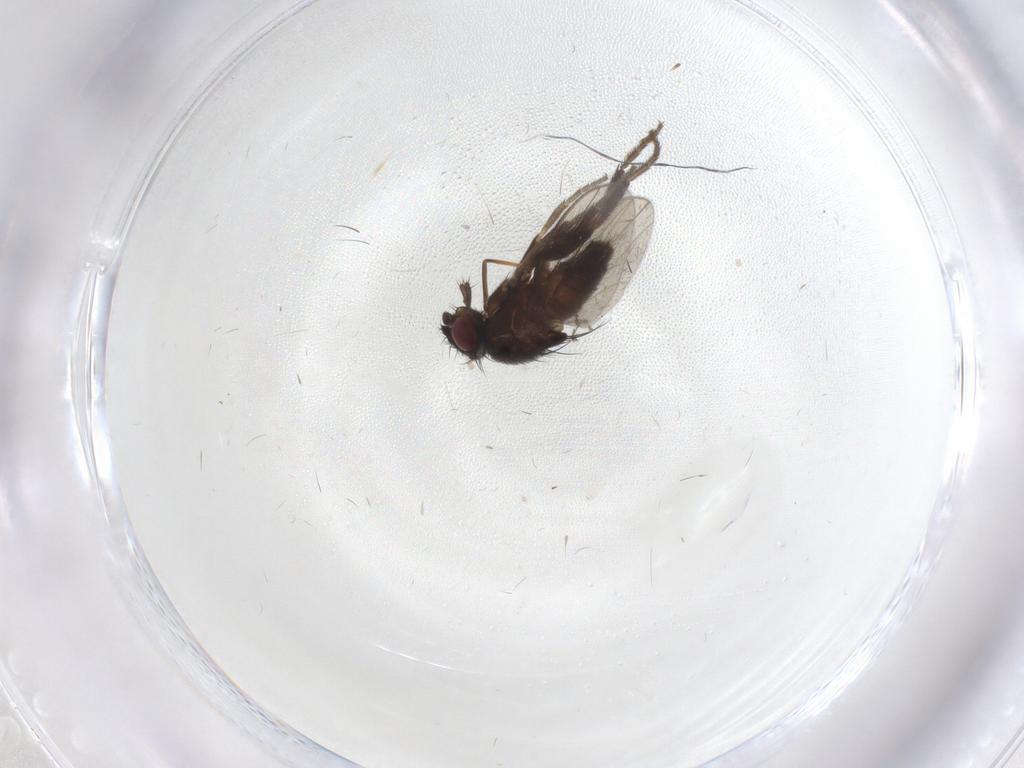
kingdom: Animalia
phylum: Arthropoda
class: Insecta
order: Diptera
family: Milichiidae
